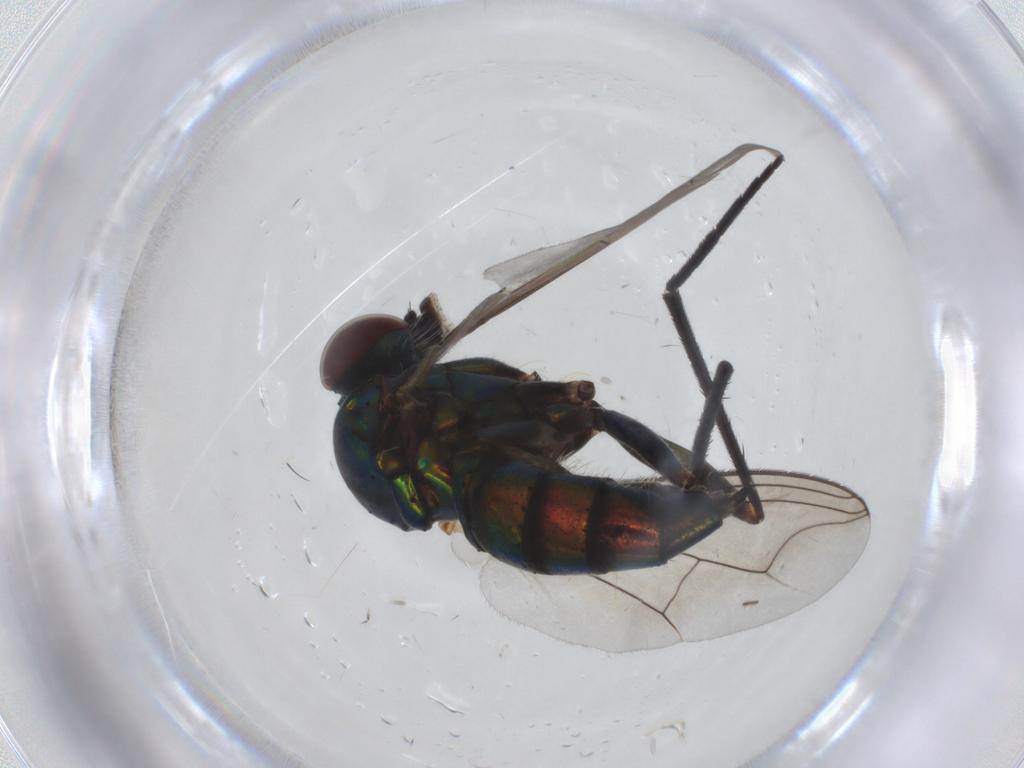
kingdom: Animalia
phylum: Arthropoda
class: Insecta
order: Diptera
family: Dolichopodidae
